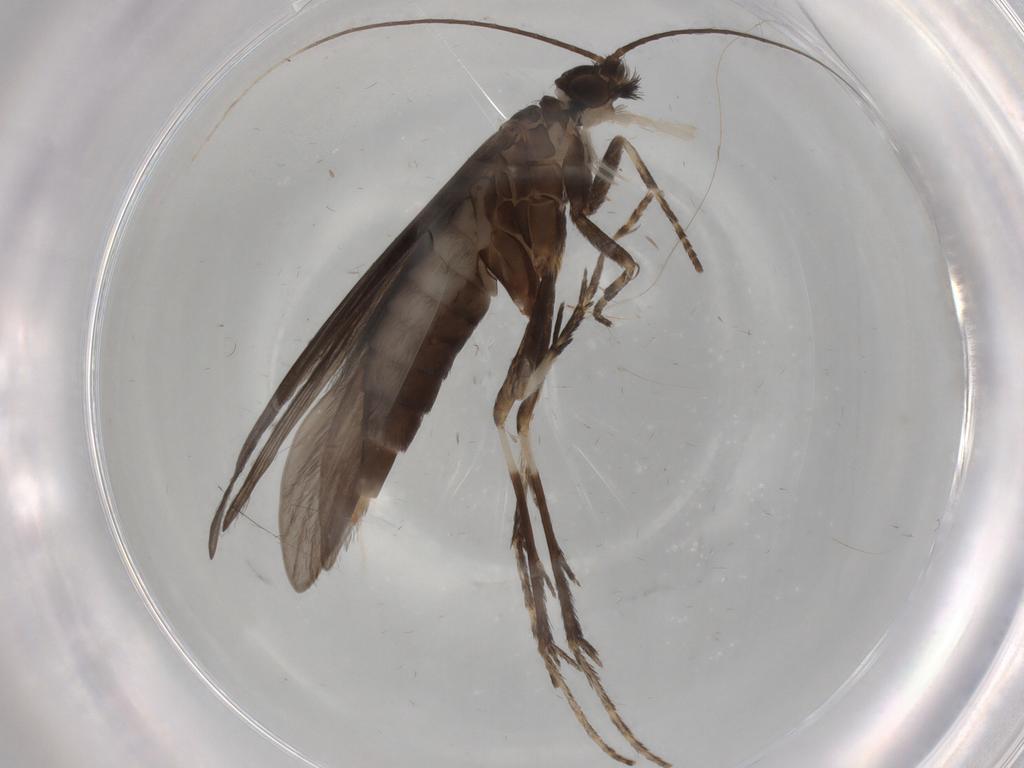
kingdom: Animalia
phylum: Arthropoda
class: Insecta
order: Trichoptera
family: Xiphocentronidae
